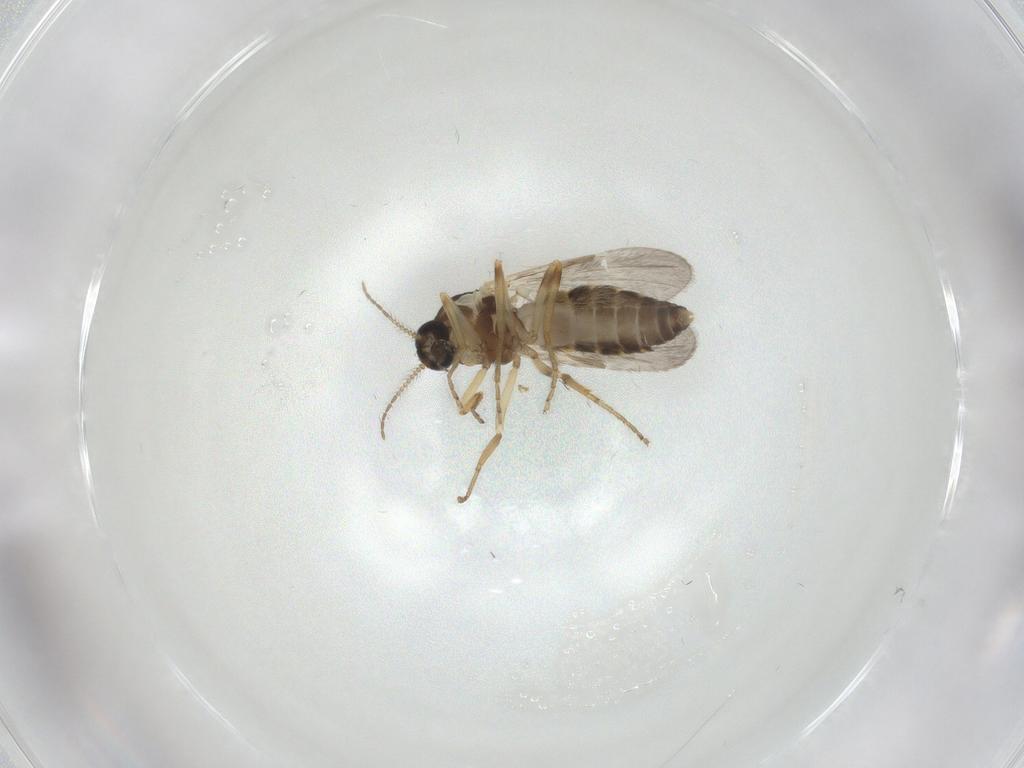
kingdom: Animalia
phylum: Arthropoda
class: Insecta
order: Diptera
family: Ceratopogonidae
